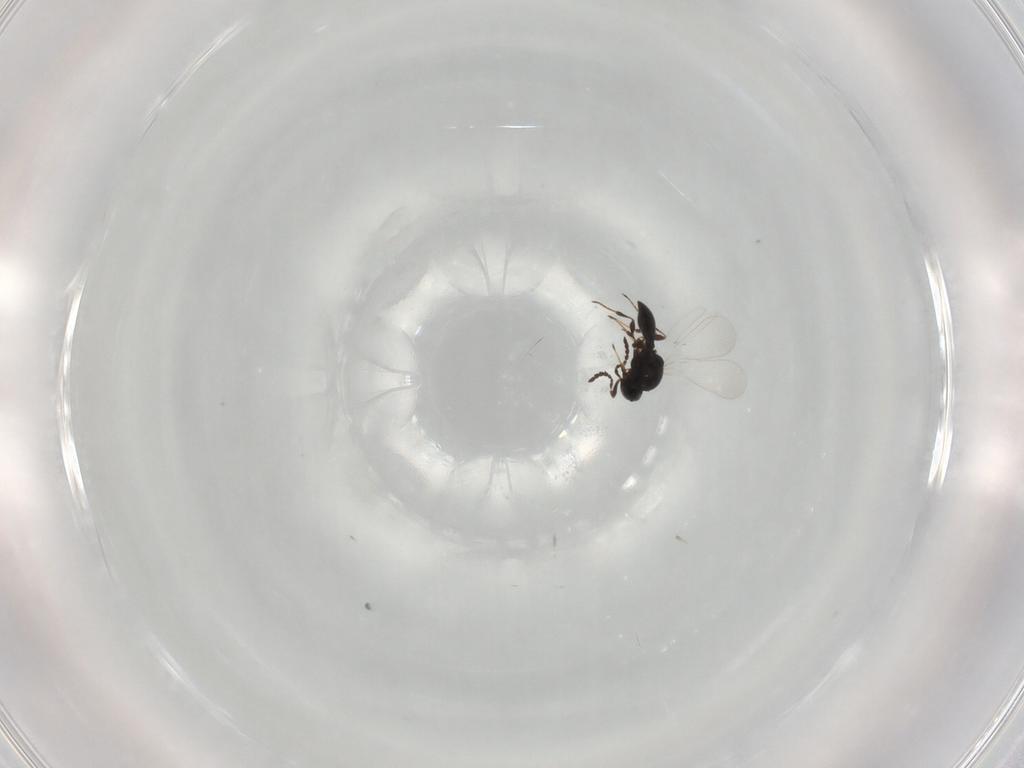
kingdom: Animalia
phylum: Arthropoda
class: Insecta
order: Hymenoptera
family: Platygastridae
